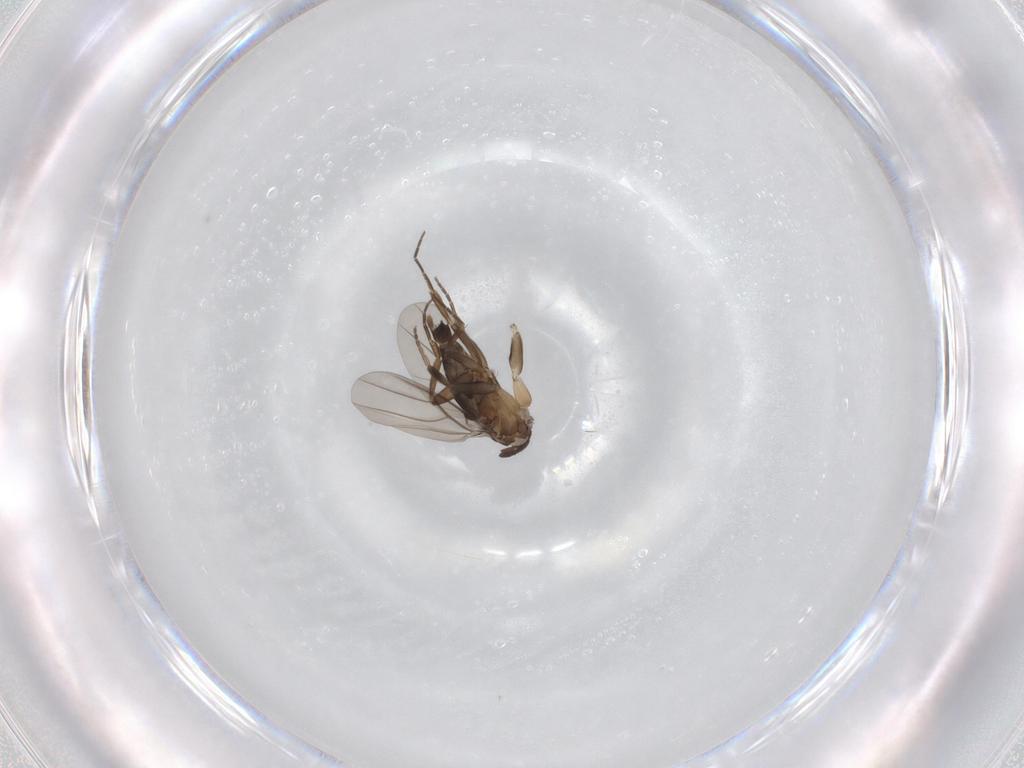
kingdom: Animalia
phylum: Arthropoda
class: Insecta
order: Diptera
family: Phoridae
